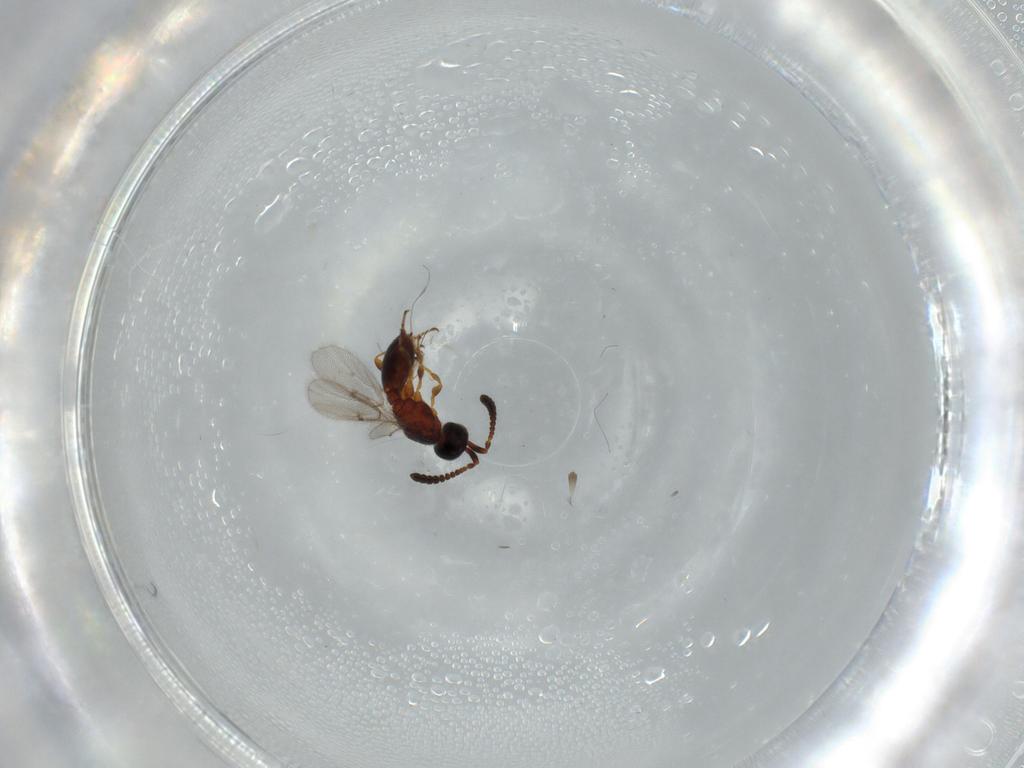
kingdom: Animalia
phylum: Arthropoda
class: Insecta
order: Hymenoptera
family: Diapriidae
